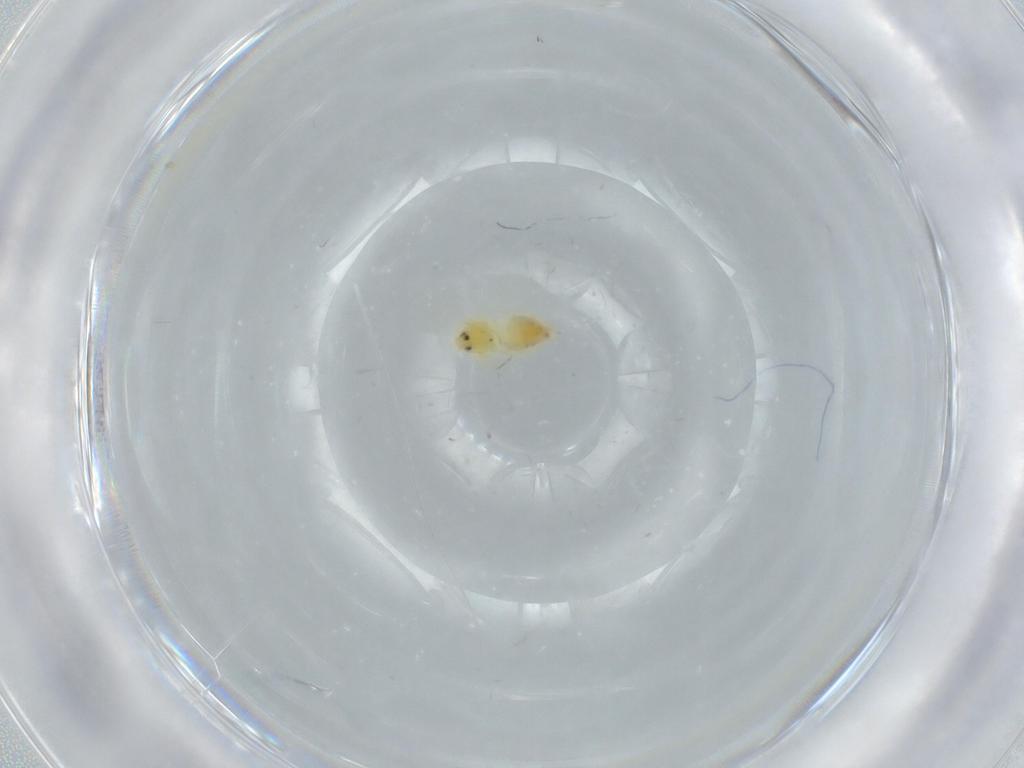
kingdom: Animalia
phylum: Arthropoda
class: Insecta
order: Hemiptera
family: Aleyrodidae
